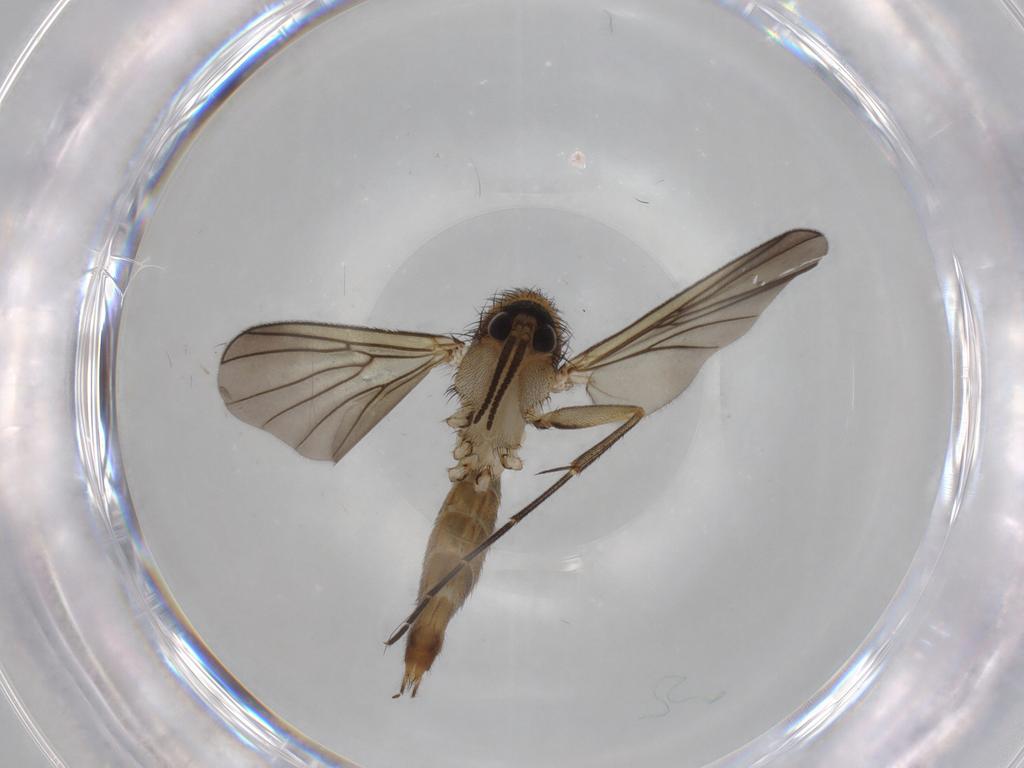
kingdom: Animalia
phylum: Arthropoda
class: Insecta
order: Diptera
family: Mycetophilidae
